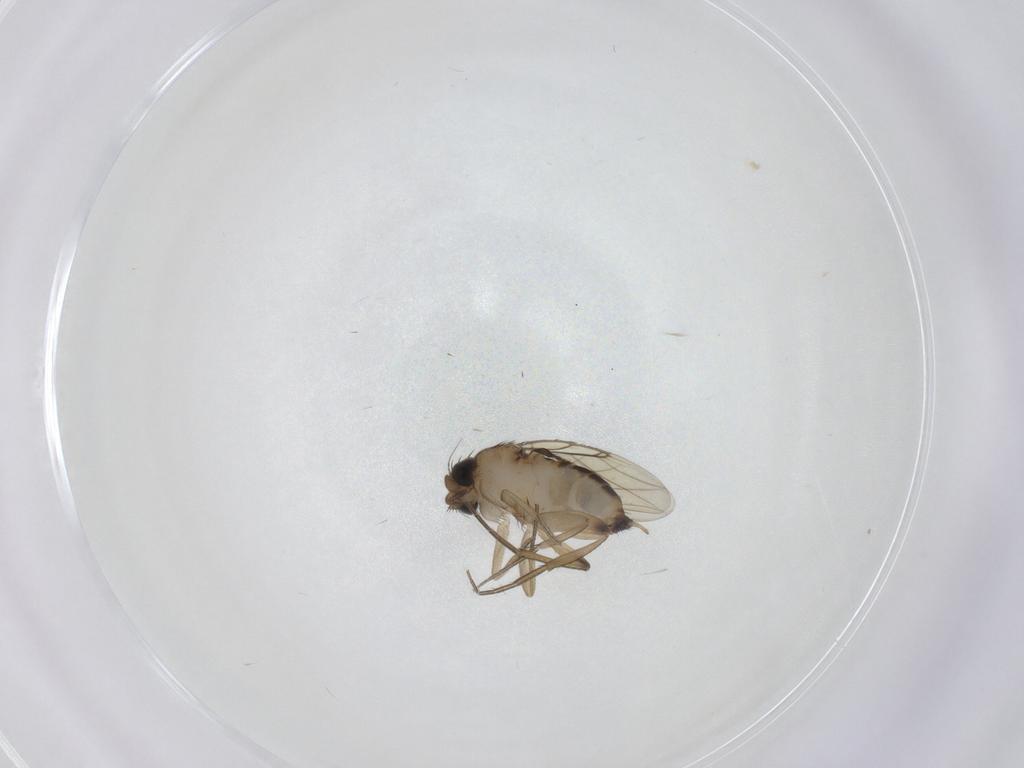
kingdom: Animalia
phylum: Arthropoda
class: Insecta
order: Diptera
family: Phoridae
